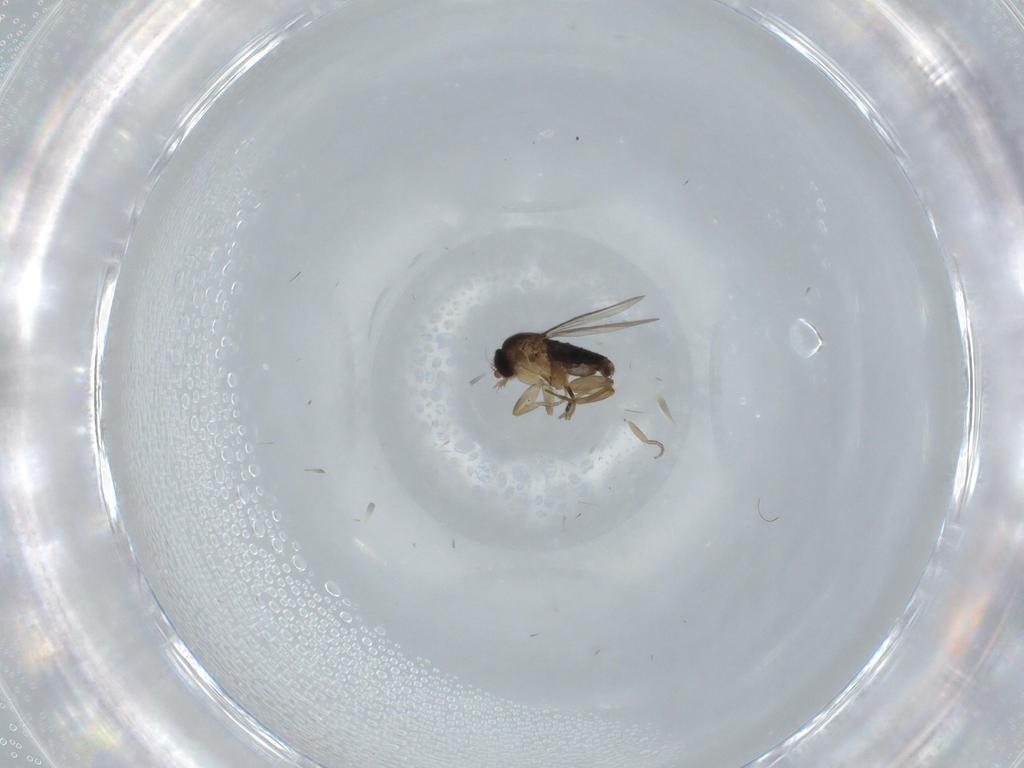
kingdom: Animalia
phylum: Arthropoda
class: Insecta
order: Diptera
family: Phoridae
